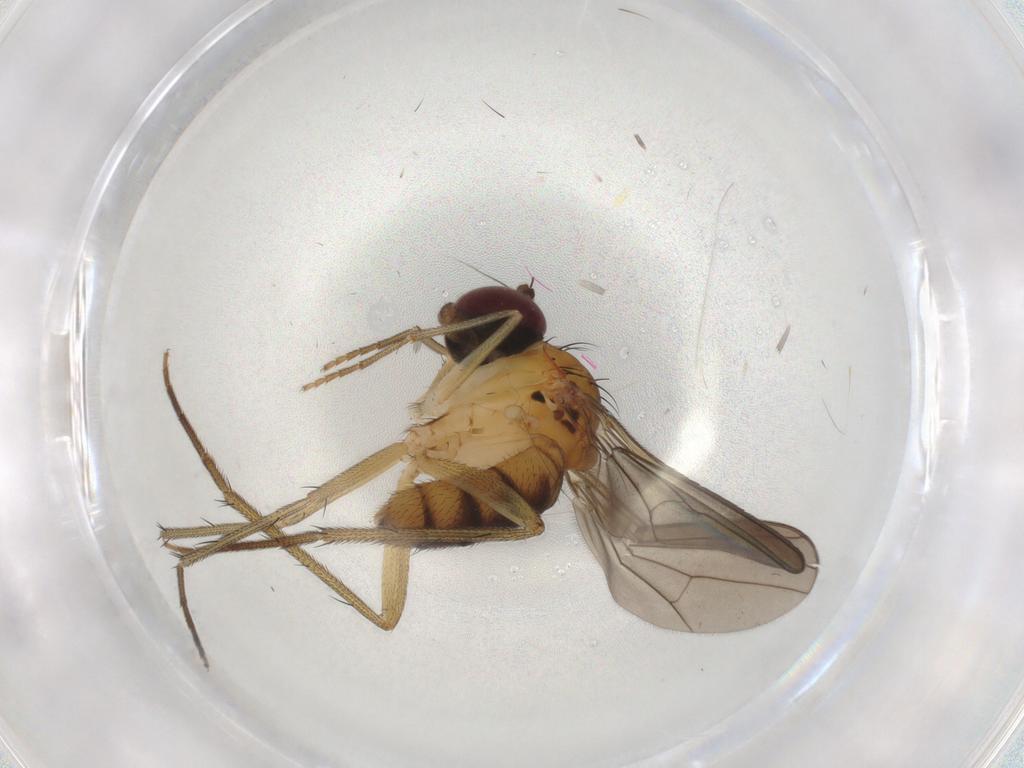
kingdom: Animalia
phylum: Arthropoda
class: Insecta
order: Diptera
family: Dolichopodidae
